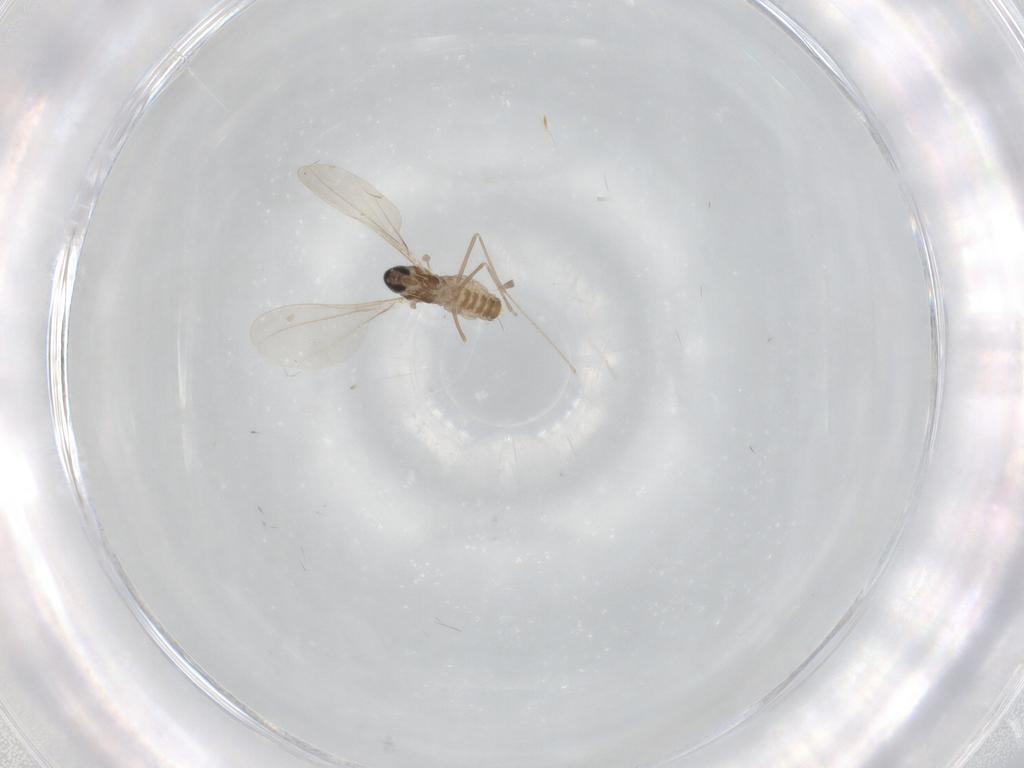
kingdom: Animalia
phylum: Arthropoda
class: Insecta
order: Diptera
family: Cecidomyiidae
